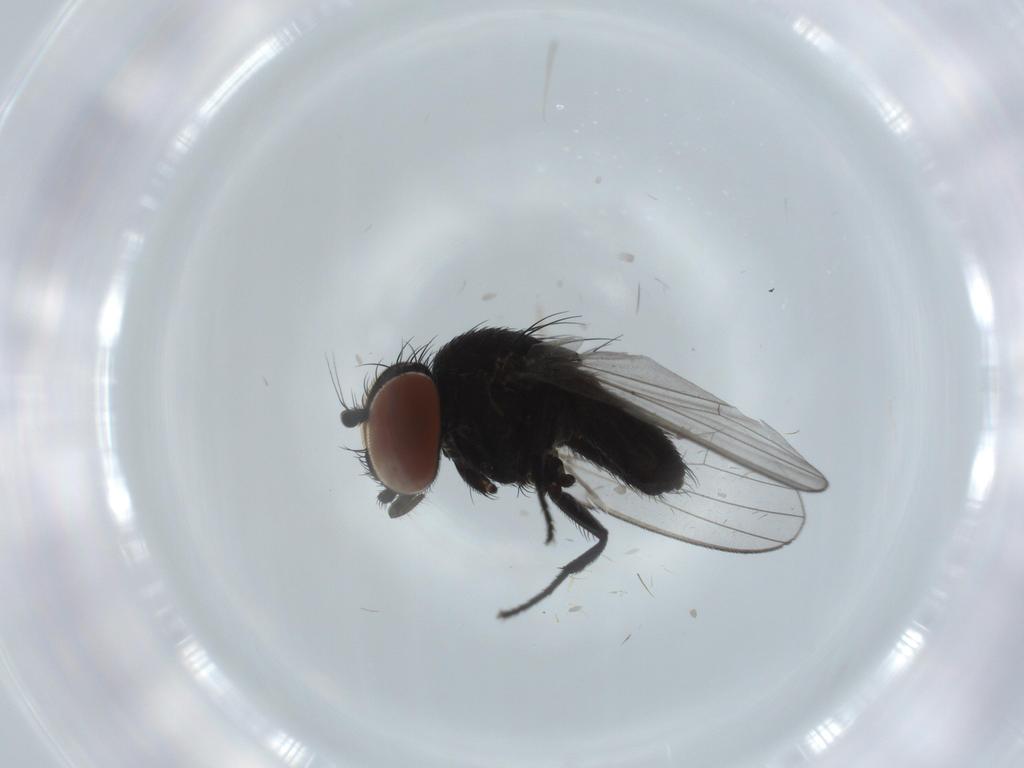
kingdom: Animalia
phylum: Arthropoda
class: Insecta
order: Diptera
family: Milichiidae
